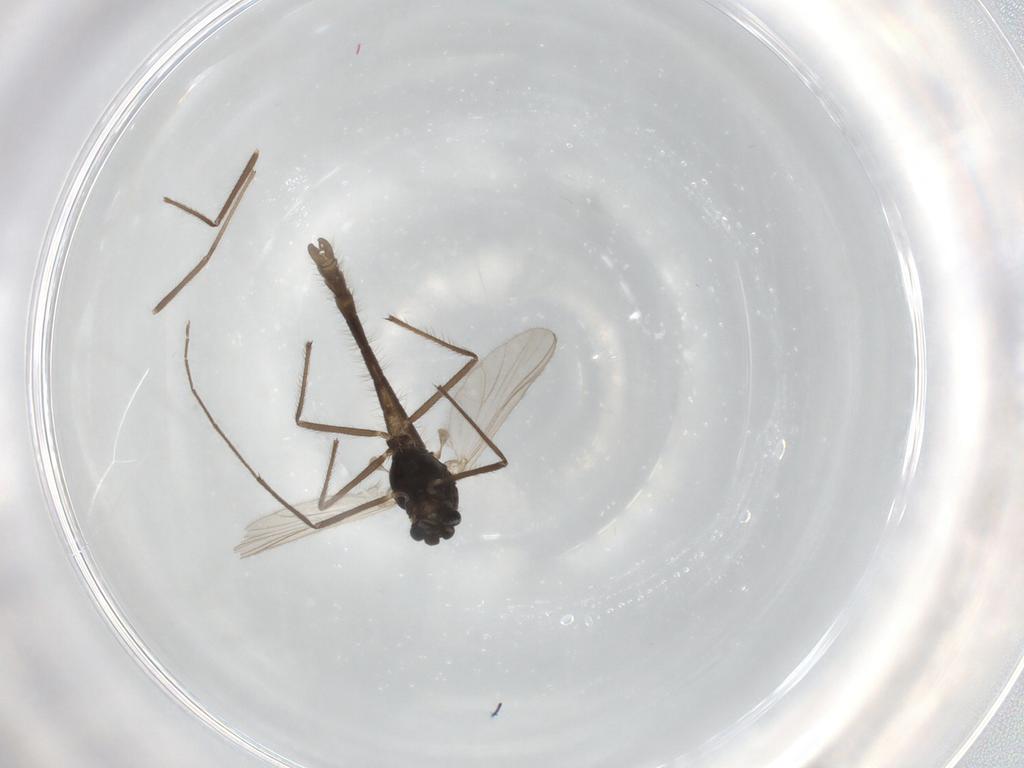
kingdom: Animalia
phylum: Arthropoda
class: Insecta
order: Diptera
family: Chironomidae
